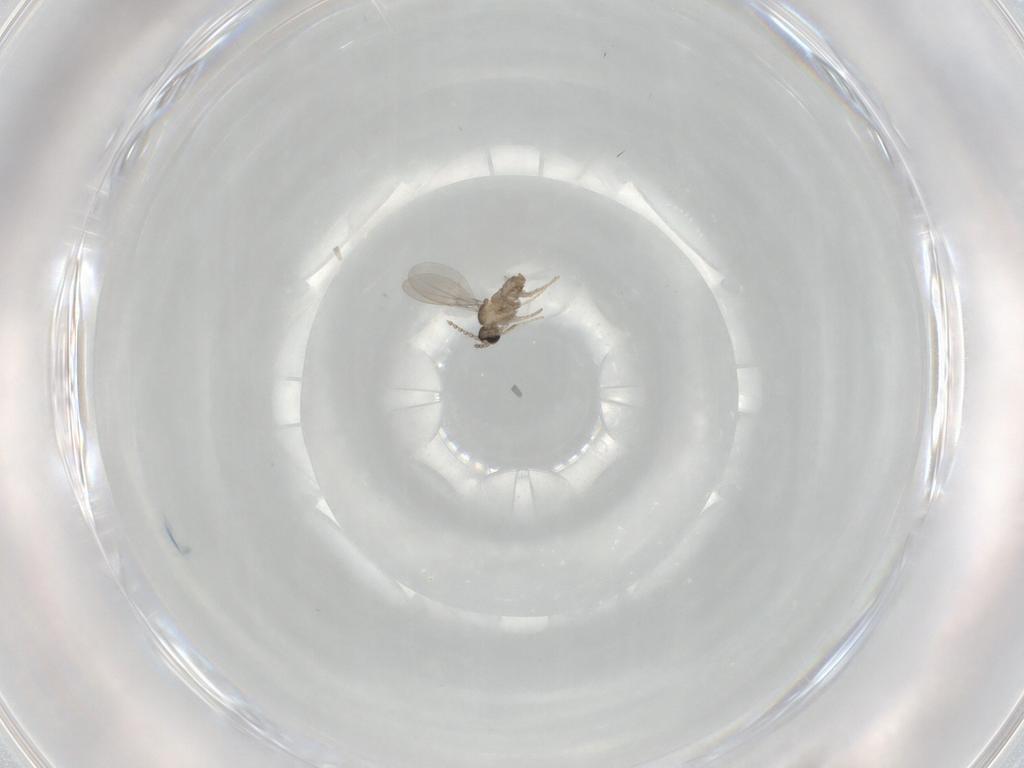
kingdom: Animalia
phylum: Arthropoda
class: Insecta
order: Diptera
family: Cecidomyiidae
